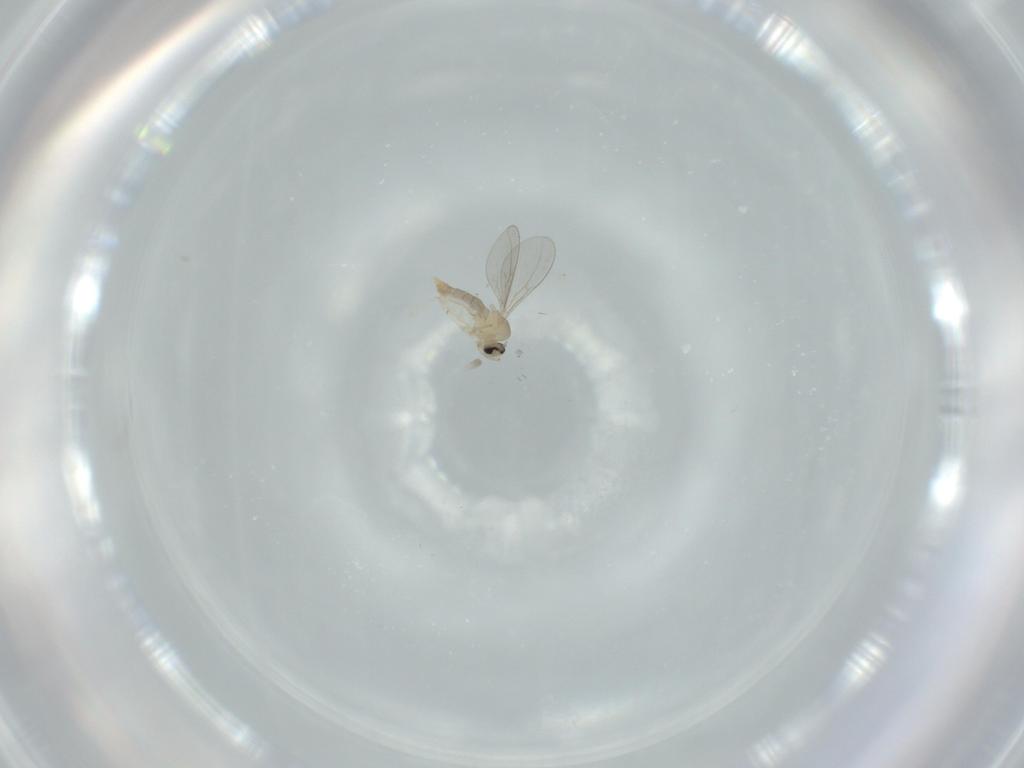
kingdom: Animalia
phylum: Arthropoda
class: Insecta
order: Diptera
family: Cecidomyiidae
